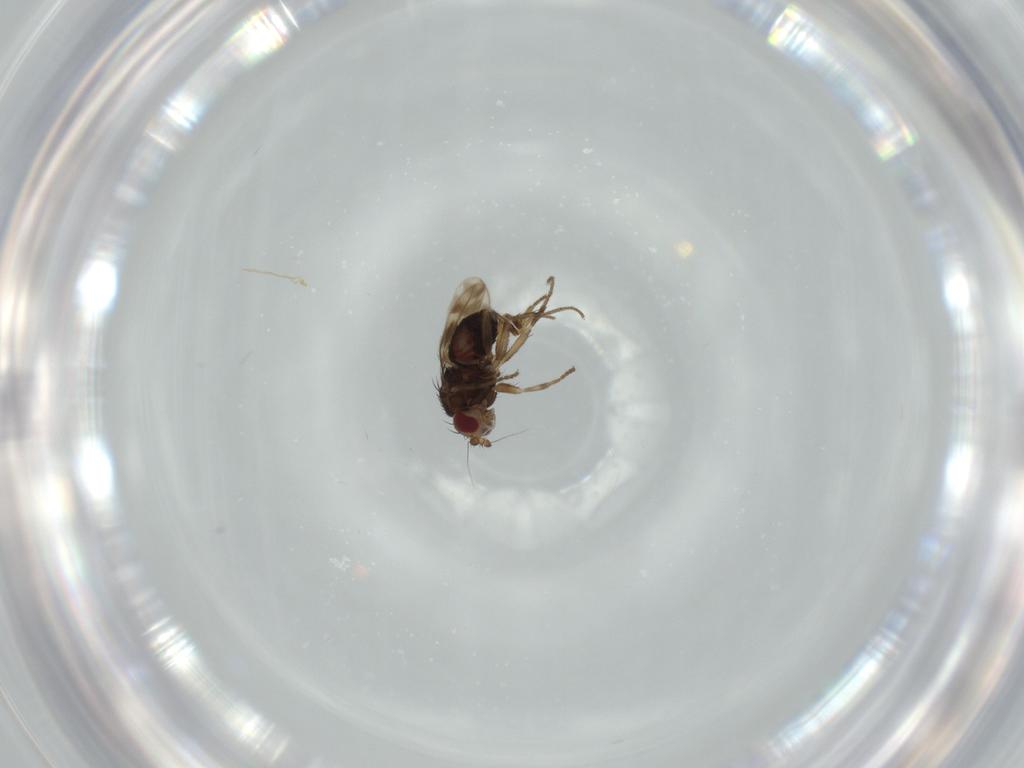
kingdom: Animalia
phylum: Arthropoda
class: Insecta
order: Diptera
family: Sphaeroceridae
